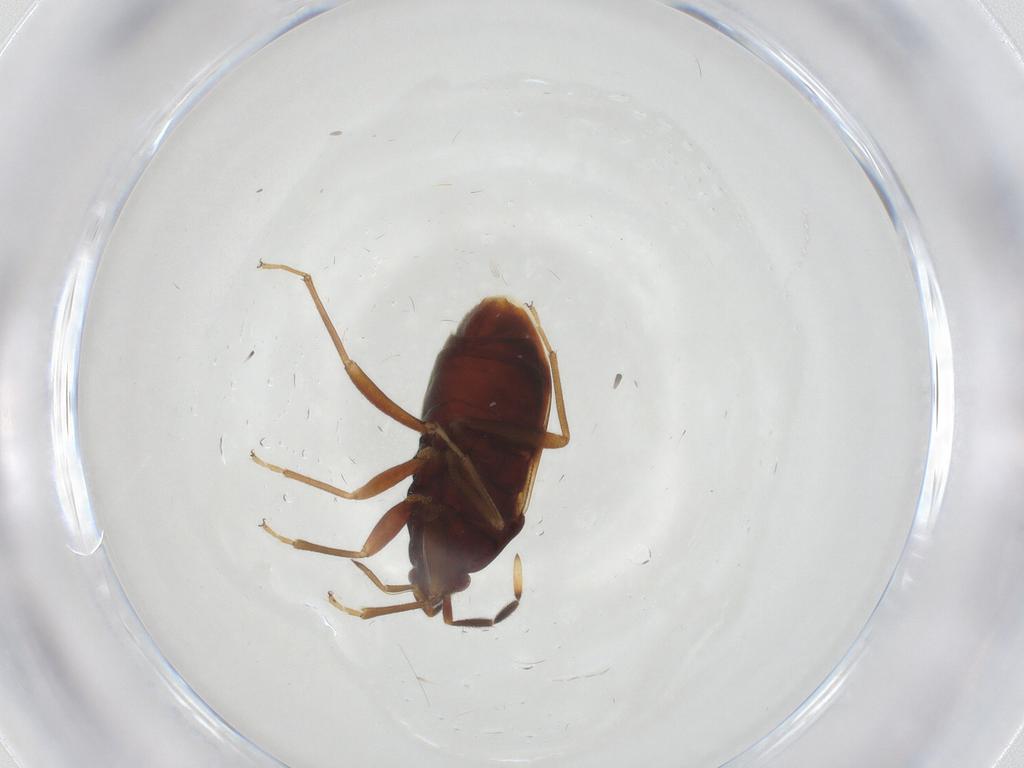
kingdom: Animalia
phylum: Arthropoda
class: Insecta
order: Hemiptera
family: Rhyparochromidae
